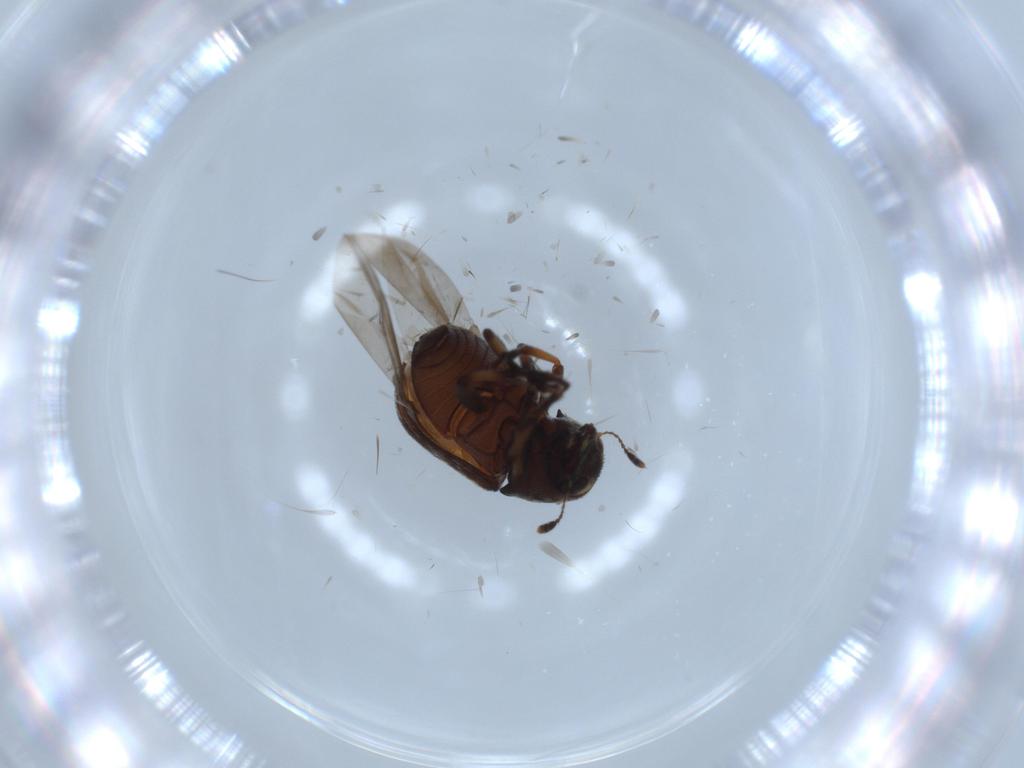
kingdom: Animalia
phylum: Arthropoda
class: Insecta
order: Coleoptera
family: Anthribidae
